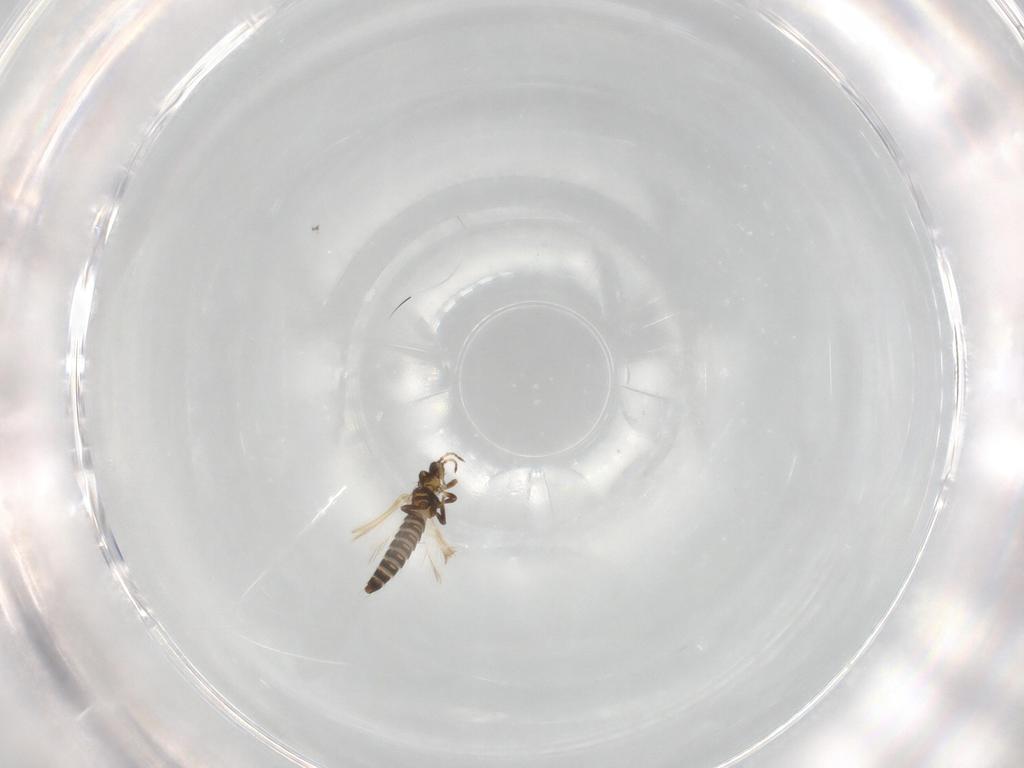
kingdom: Animalia
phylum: Arthropoda
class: Insecta
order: Thysanoptera
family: Thripidae
